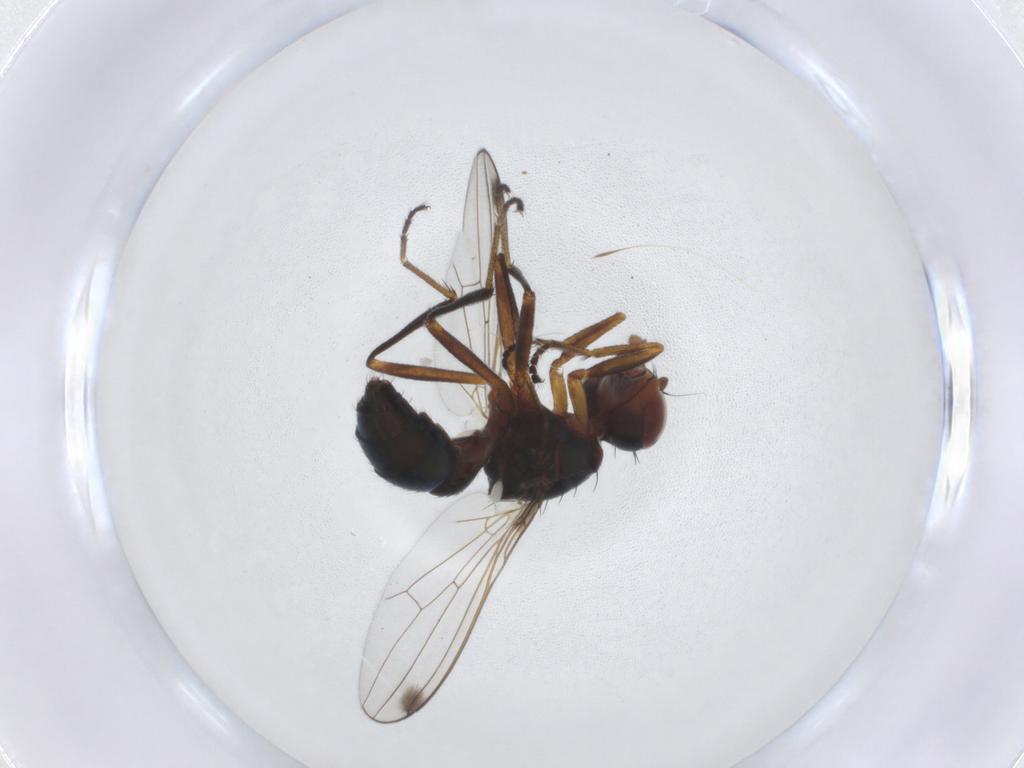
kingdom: Animalia
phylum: Arthropoda
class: Insecta
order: Diptera
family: Sepsidae
